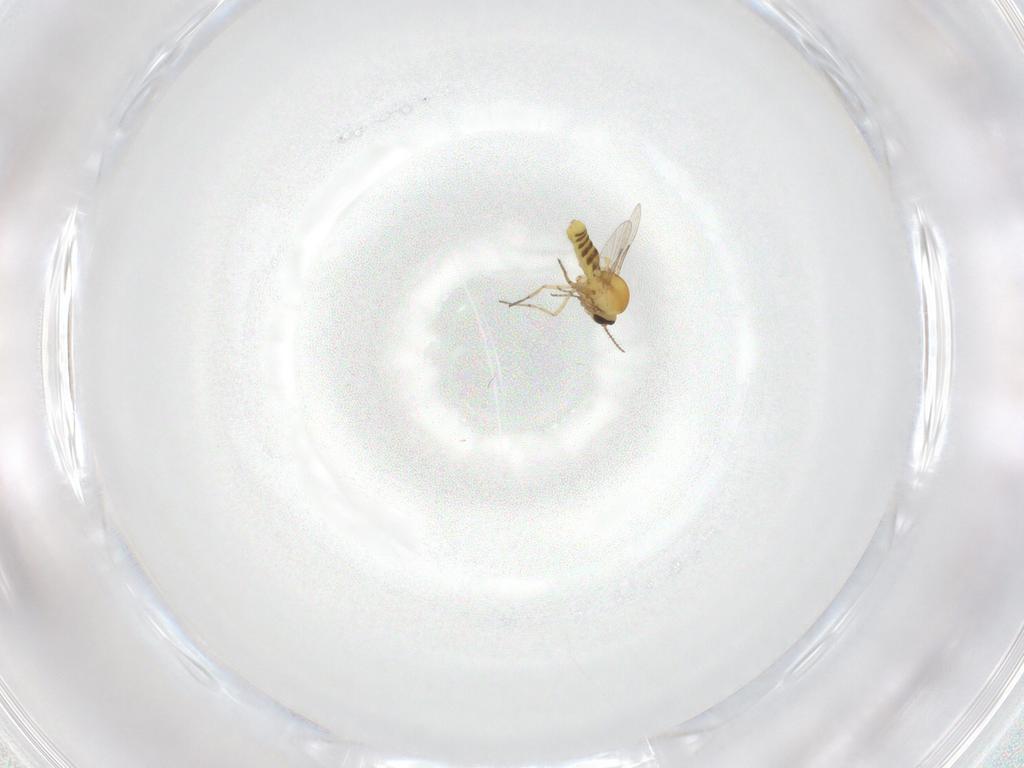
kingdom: Animalia
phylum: Arthropoda
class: Insecta
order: Diptera
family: Ceratopogonidae
